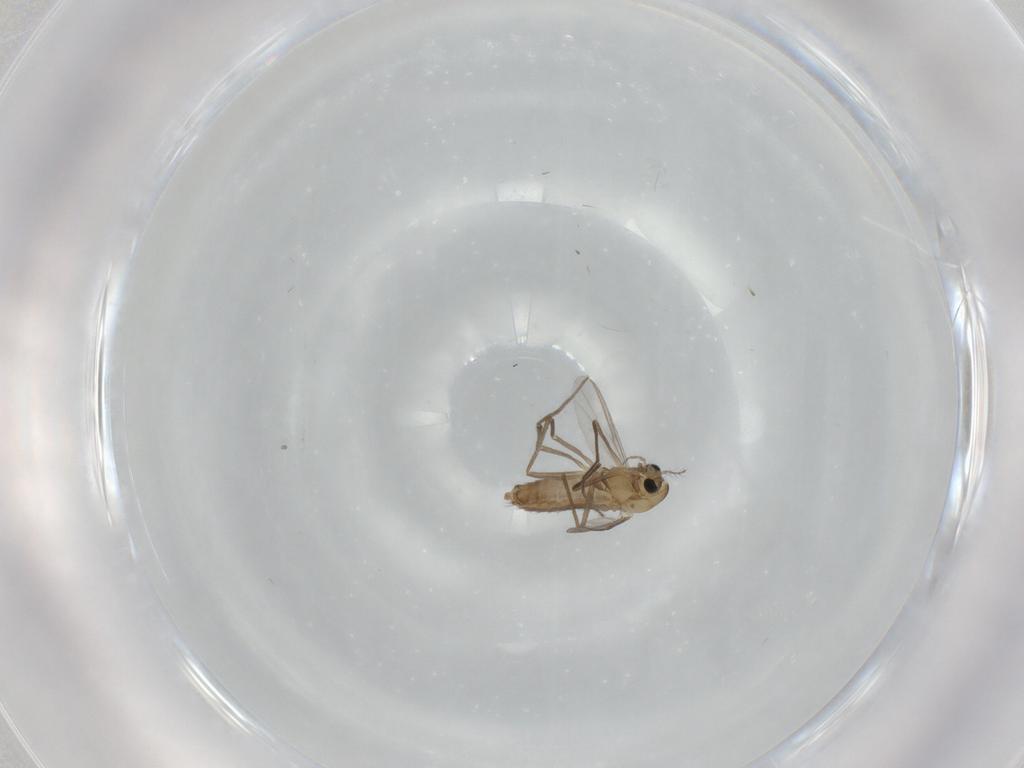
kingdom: Animalia
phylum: Arthropoda
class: Insecta
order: Diptera
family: Chironomidae
